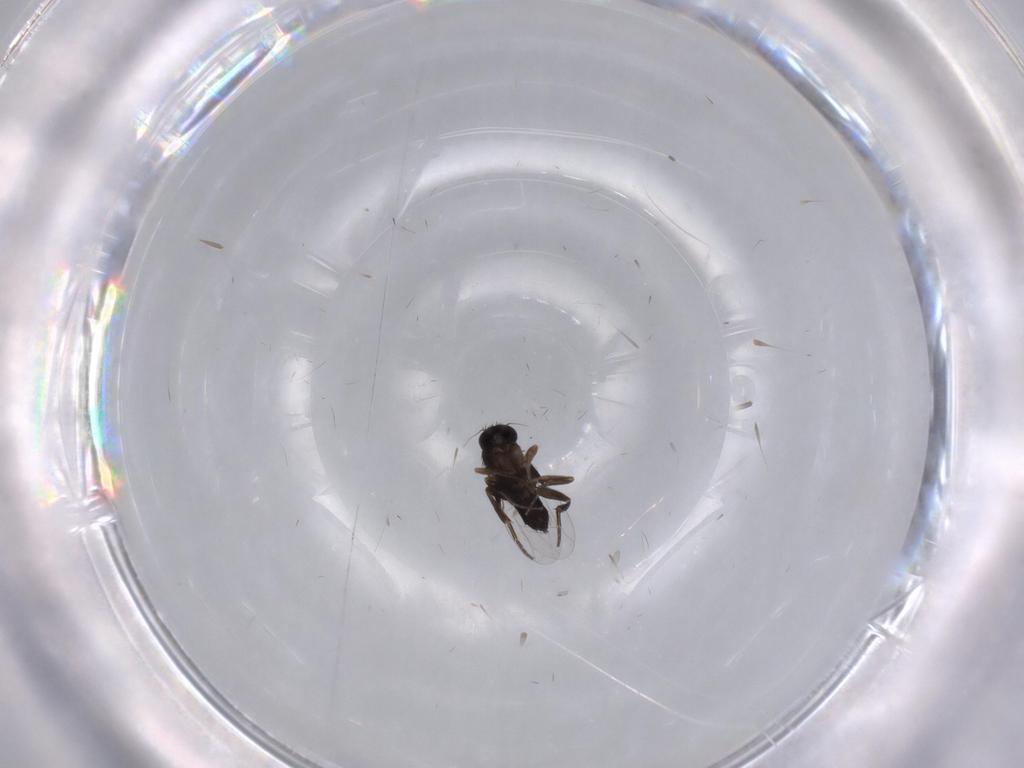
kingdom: Animalia
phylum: Arthropoda
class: Insecta
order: Diptera
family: Phoridae
